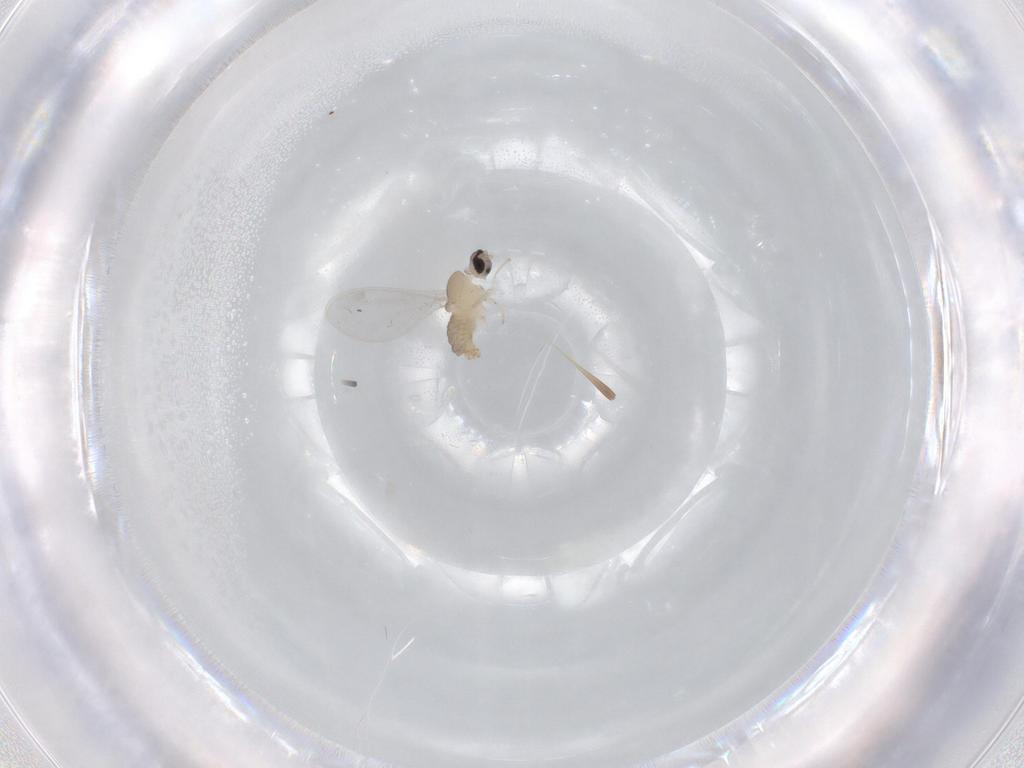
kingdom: Animalia
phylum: Arthropoda
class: Insecta
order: Diptera
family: Cecidomyiidae
